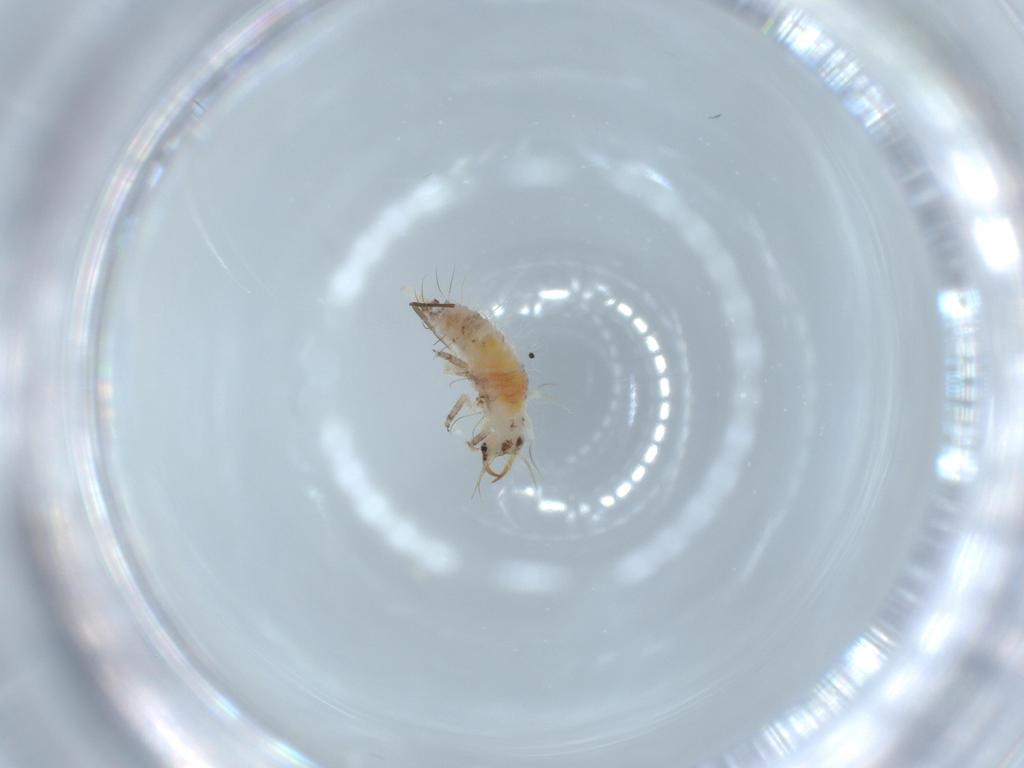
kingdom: Animalia
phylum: Arthropoda
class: Insecta
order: Neuroptera
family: Chrysopidae
